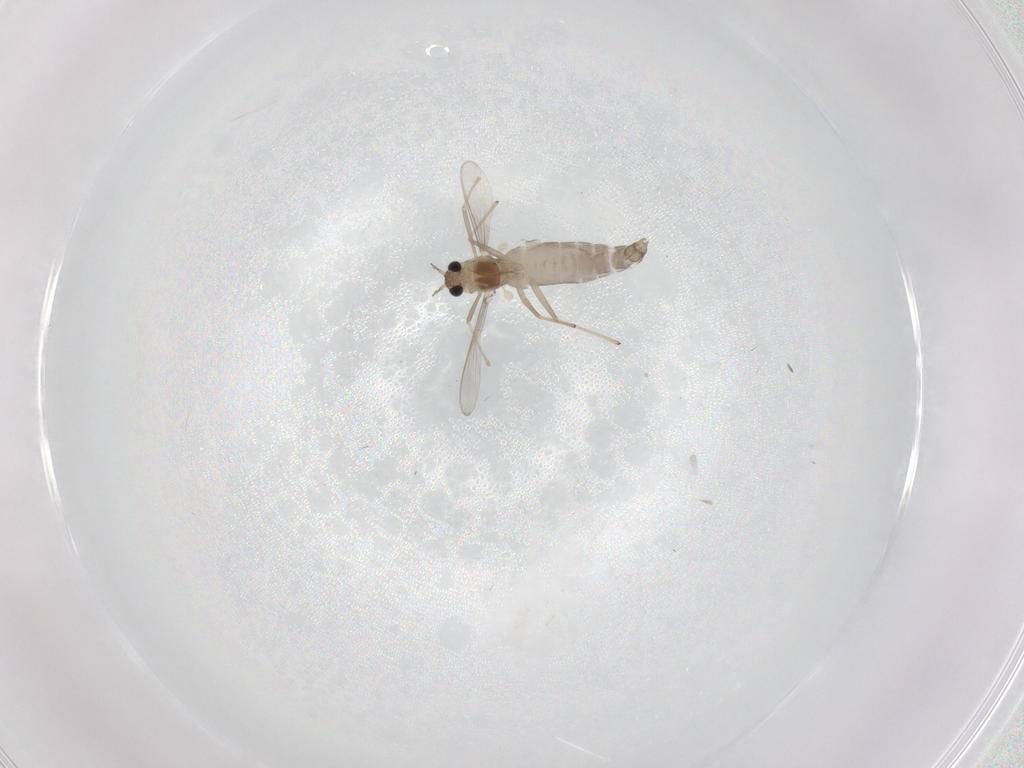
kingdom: Animalia
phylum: Arthropoda
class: Insecta
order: Diptera
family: Chironomidae
